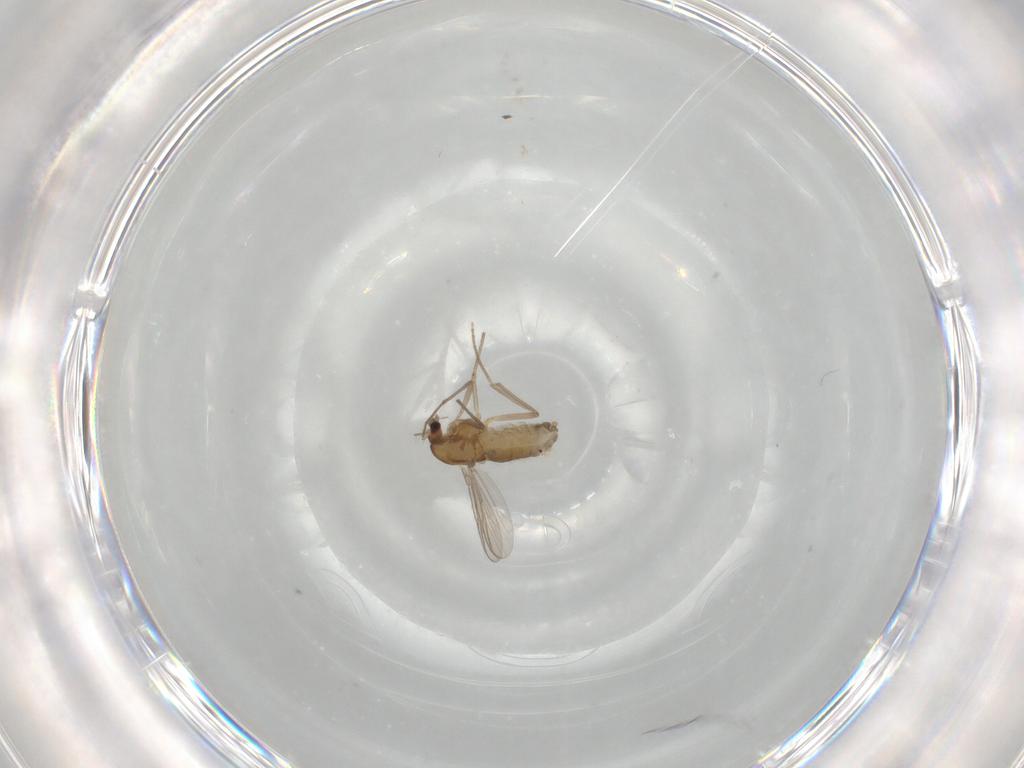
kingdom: Animalia
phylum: Arthropoda
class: Insecta
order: Diptera
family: Chironomidae
